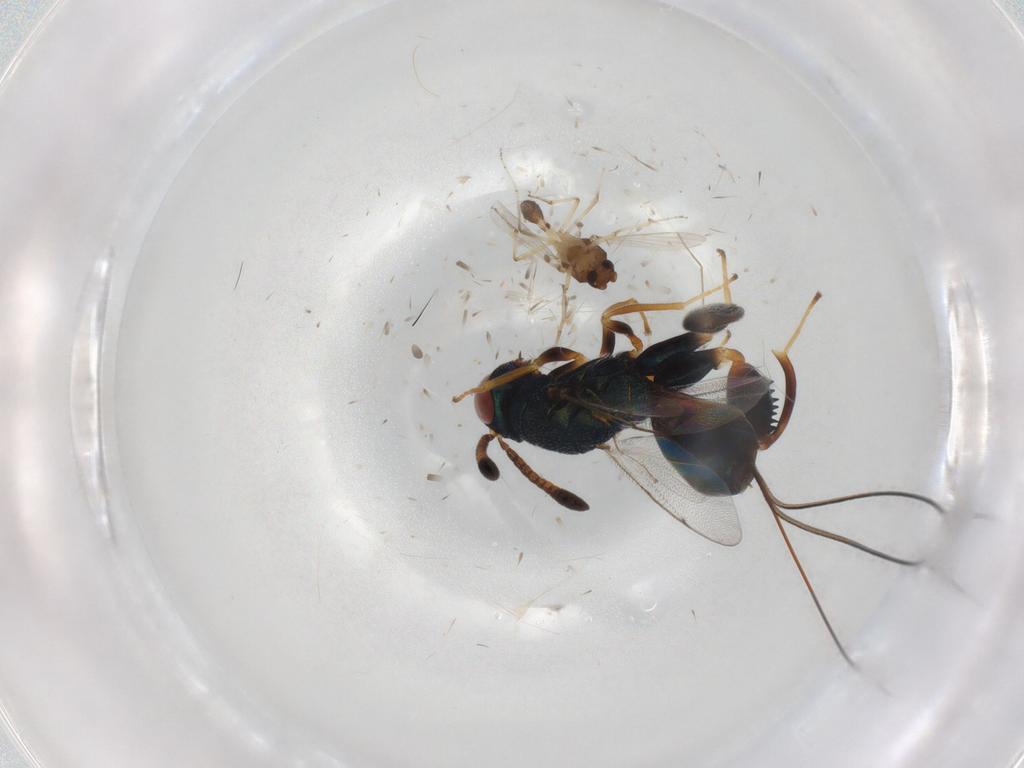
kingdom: Animalia
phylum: Arthropoda
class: Insecta
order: Diptera
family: Ceratopogonidae
